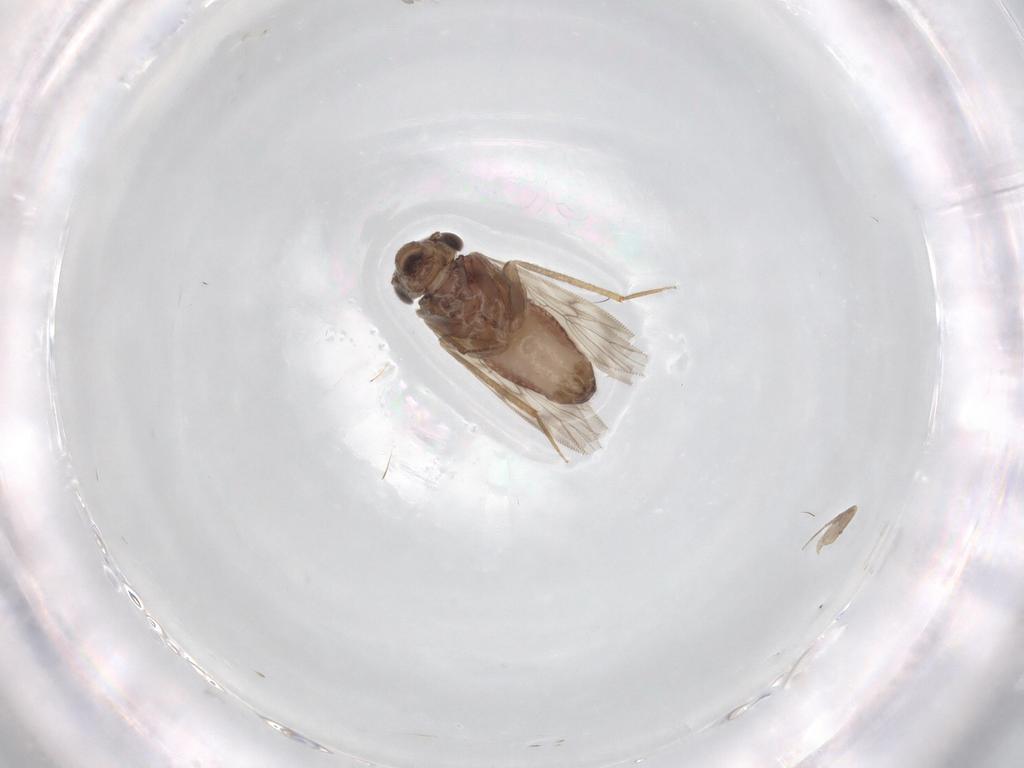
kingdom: Animalia
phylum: Arthropoda
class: Insecta
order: Psocodea
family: Lepidopsocidae
